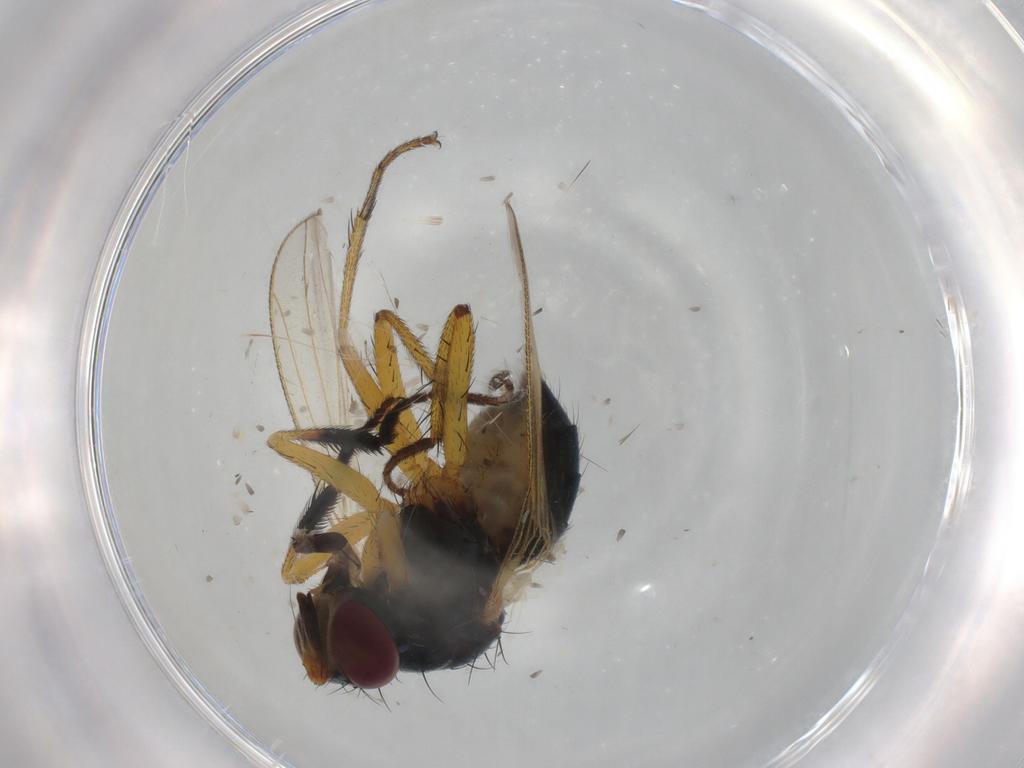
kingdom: Animalia
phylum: Arthropoda
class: Insecta
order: Diptera
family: Muscidae
